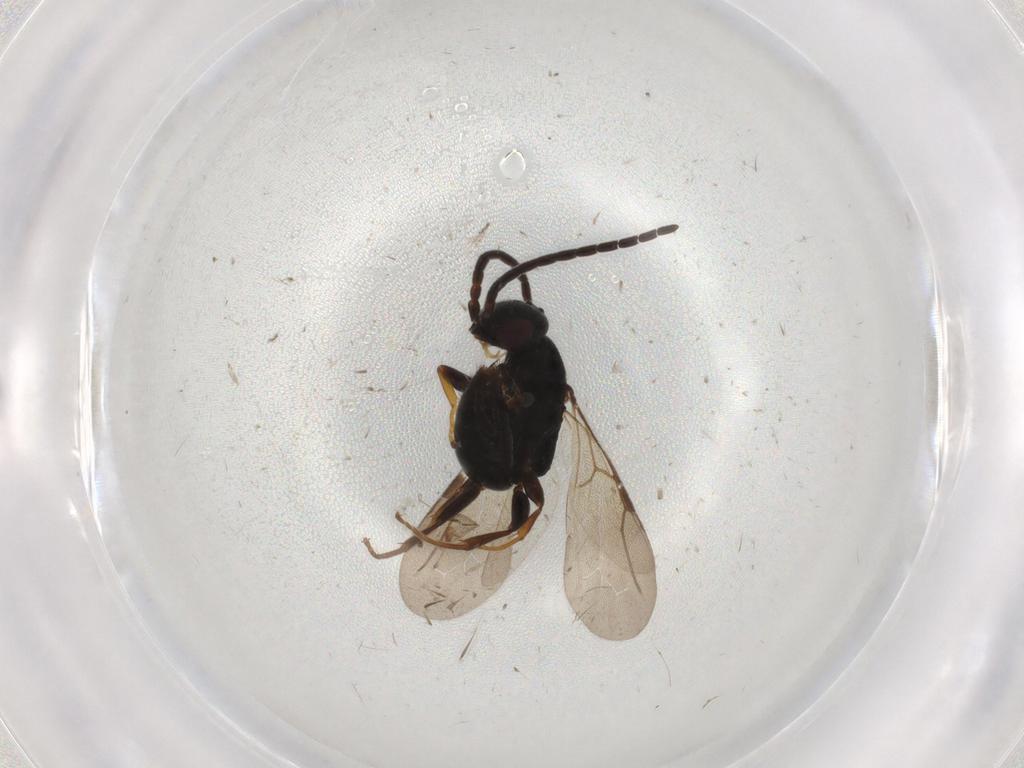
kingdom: Animalia
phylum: Arthropoda
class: Insecta
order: Hymenoptera
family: Bethylidae
